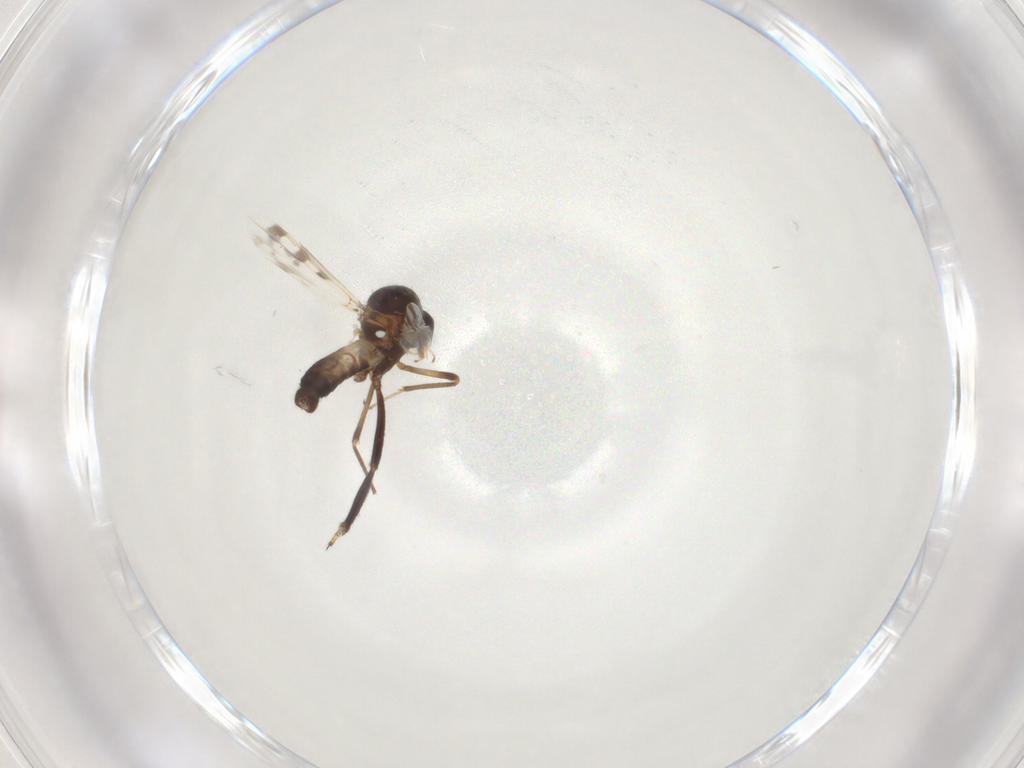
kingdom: Animalia
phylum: Arthropoda
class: Insecta
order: Diptera
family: Ceratopogonidae
